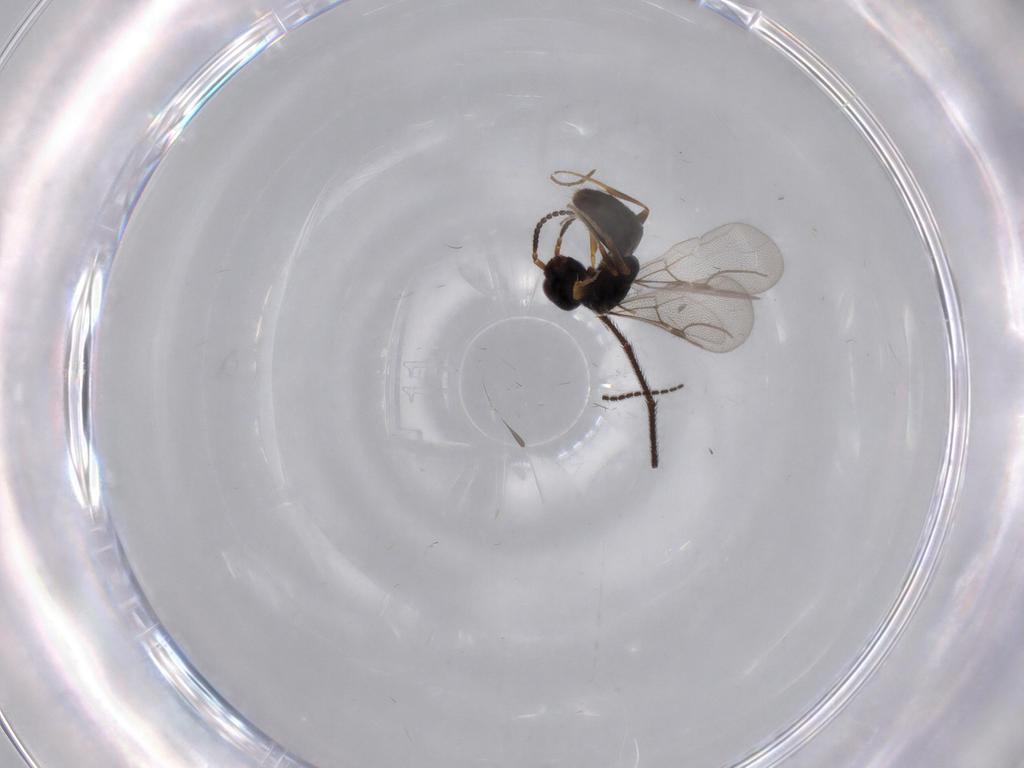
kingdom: Animalia
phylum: Arthropoda
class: Insecta
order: Hymenoptera
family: Bethylidae
